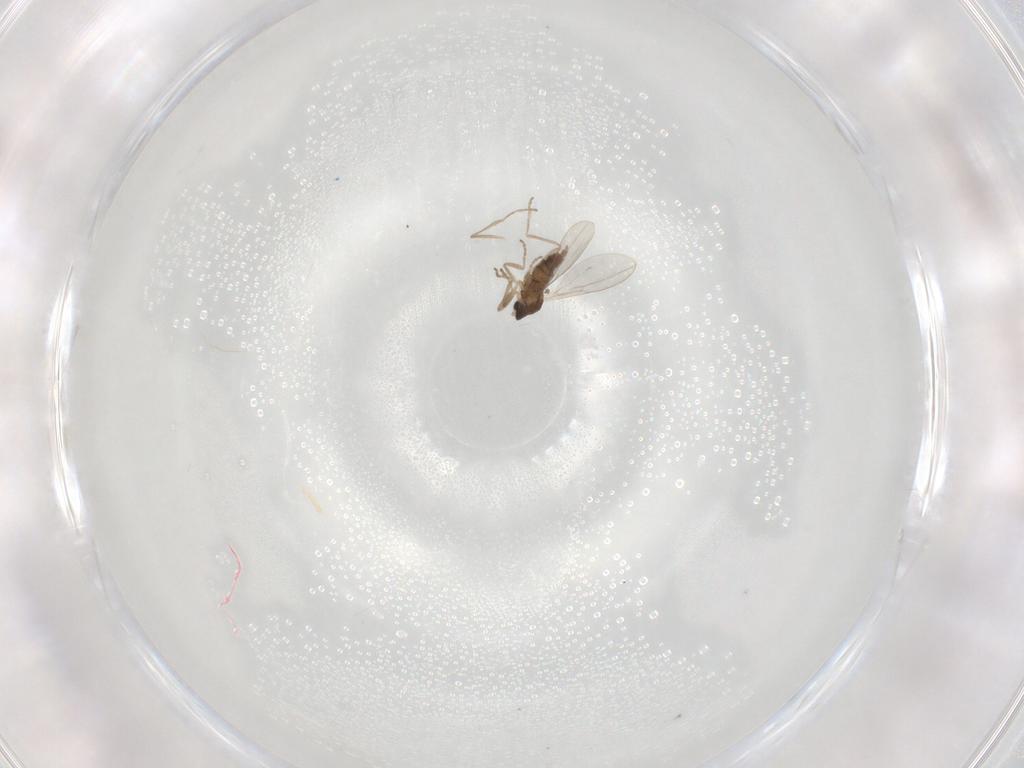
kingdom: Animalia
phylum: Arthropoda
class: Insecta
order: Diptera
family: Cecidomyiidae
